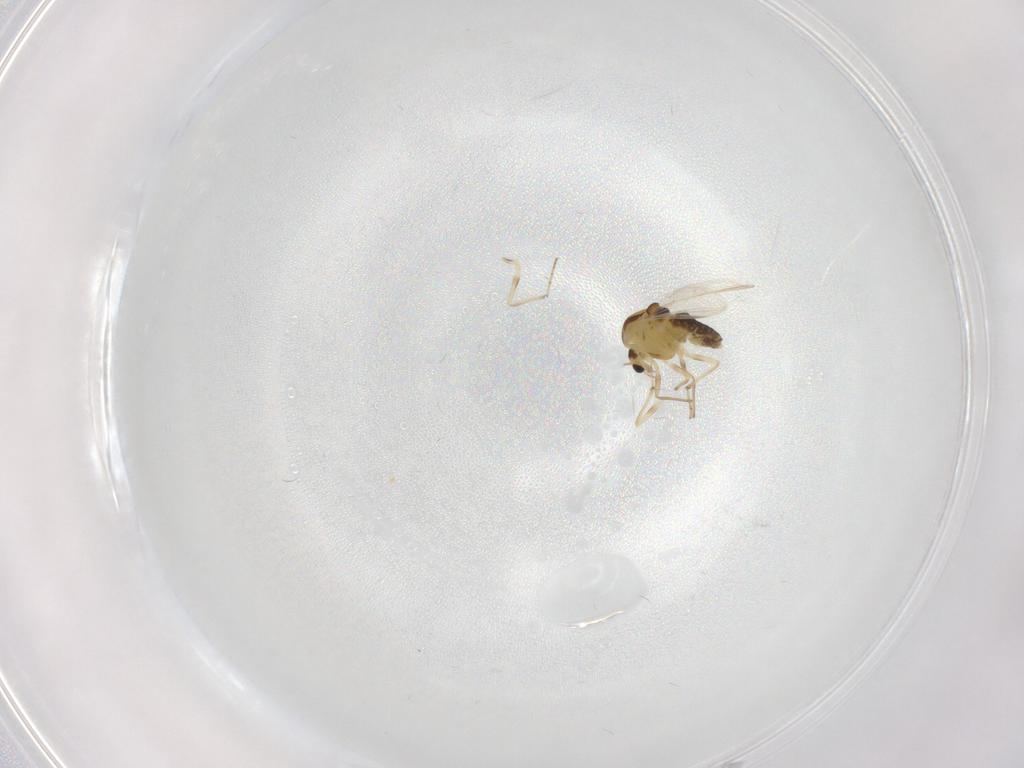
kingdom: Animalia
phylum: Arthropoda
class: Insecta
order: Diptera
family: Chironomidae
